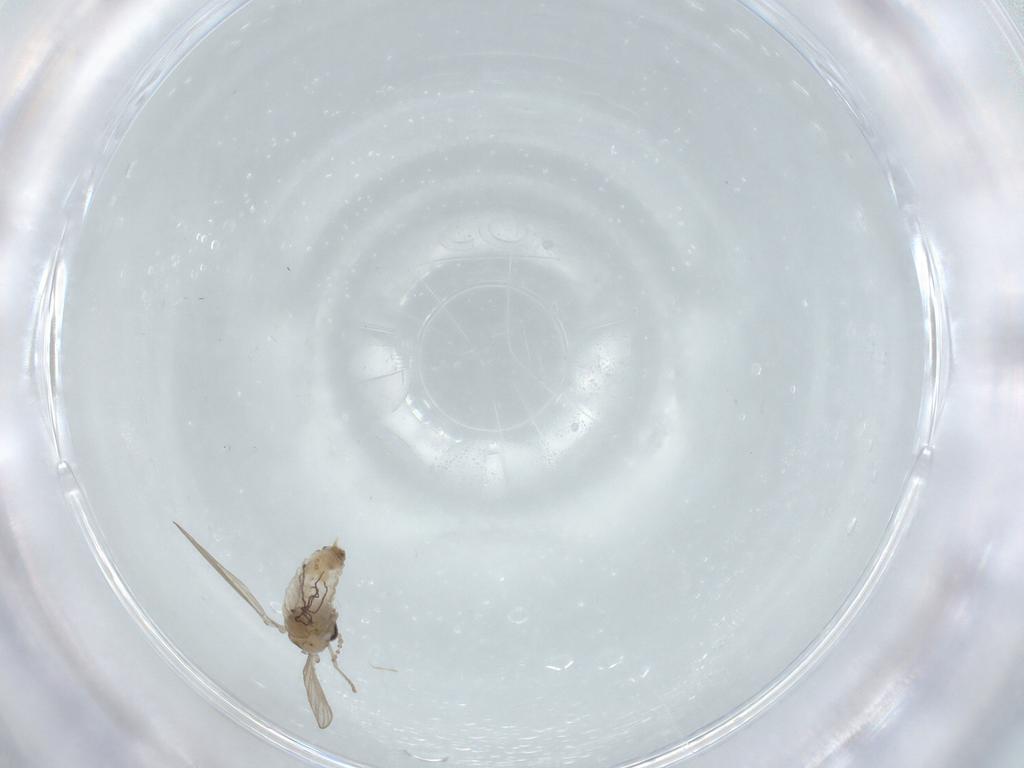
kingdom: Animalia
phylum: Arthropoda
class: Insecta
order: Diptera
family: Psychodidae
